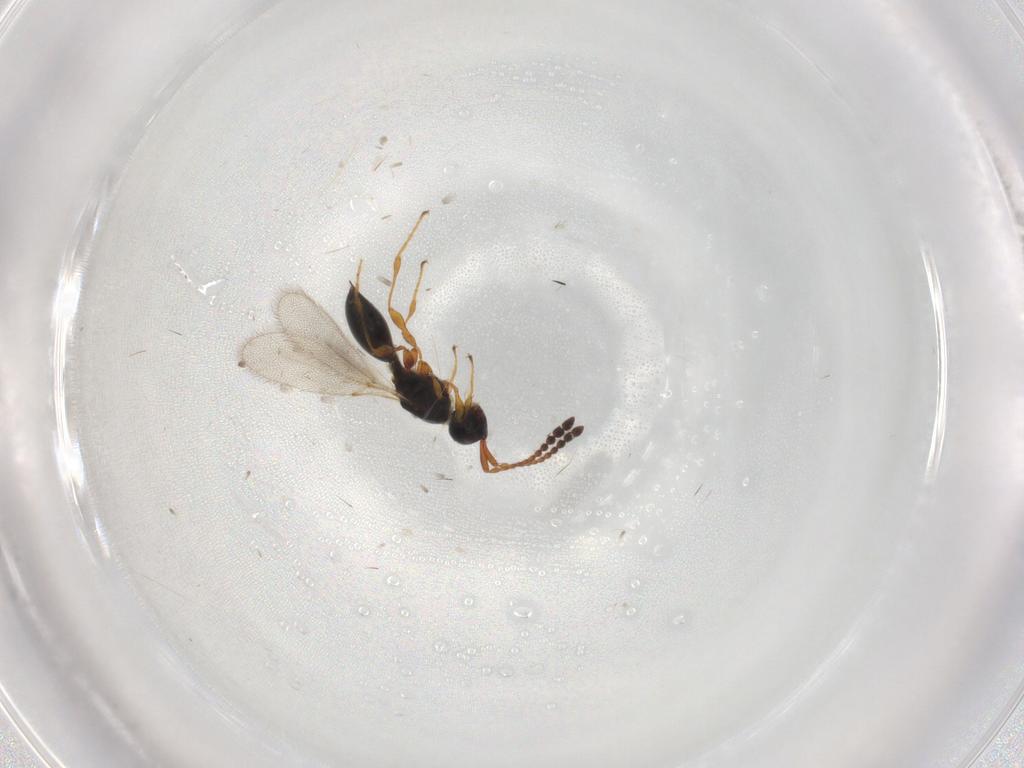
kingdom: Animalia
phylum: Arthropoda
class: Insecta
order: Hymenoptera
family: Diapriidae
